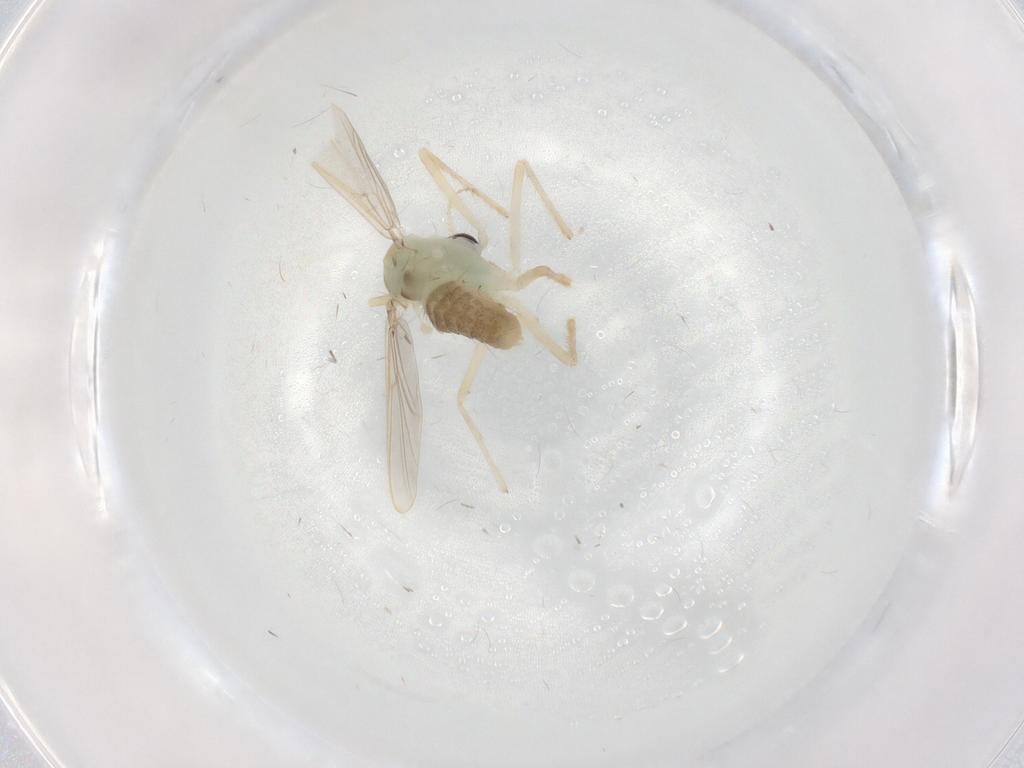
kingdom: Animalia
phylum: Arthropoda
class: Insecta
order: Diptera
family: Chironomidae
